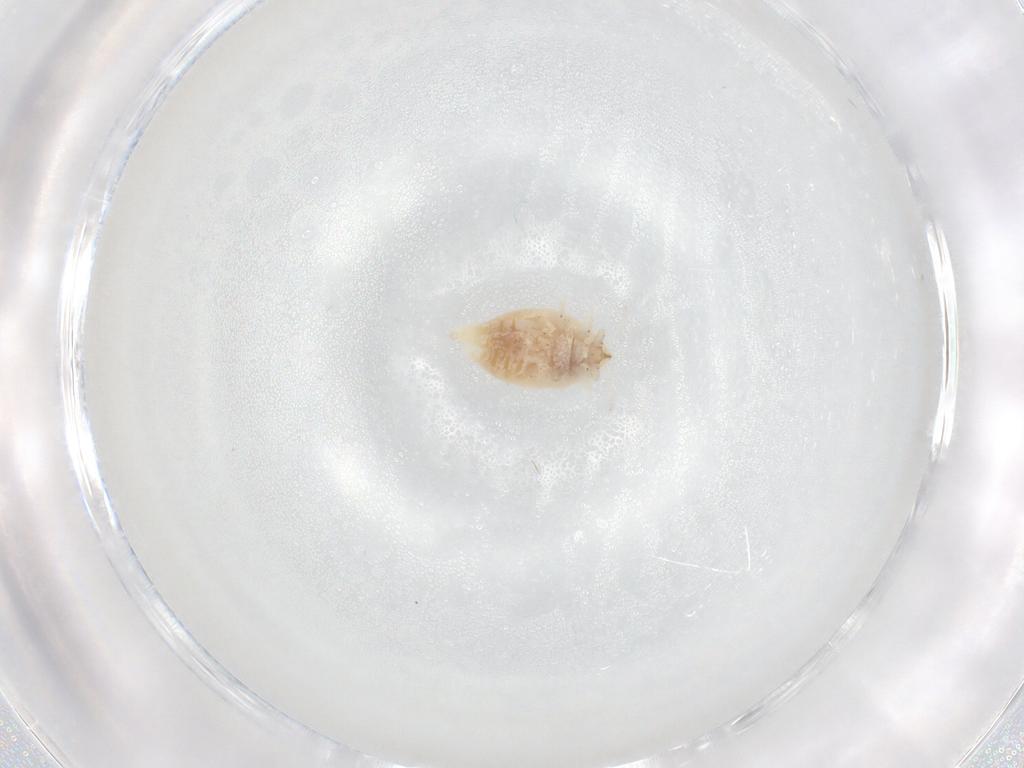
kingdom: Animalia
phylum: Arthropoda
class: Insecta
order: Neuroptera
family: Coniopterygidae
